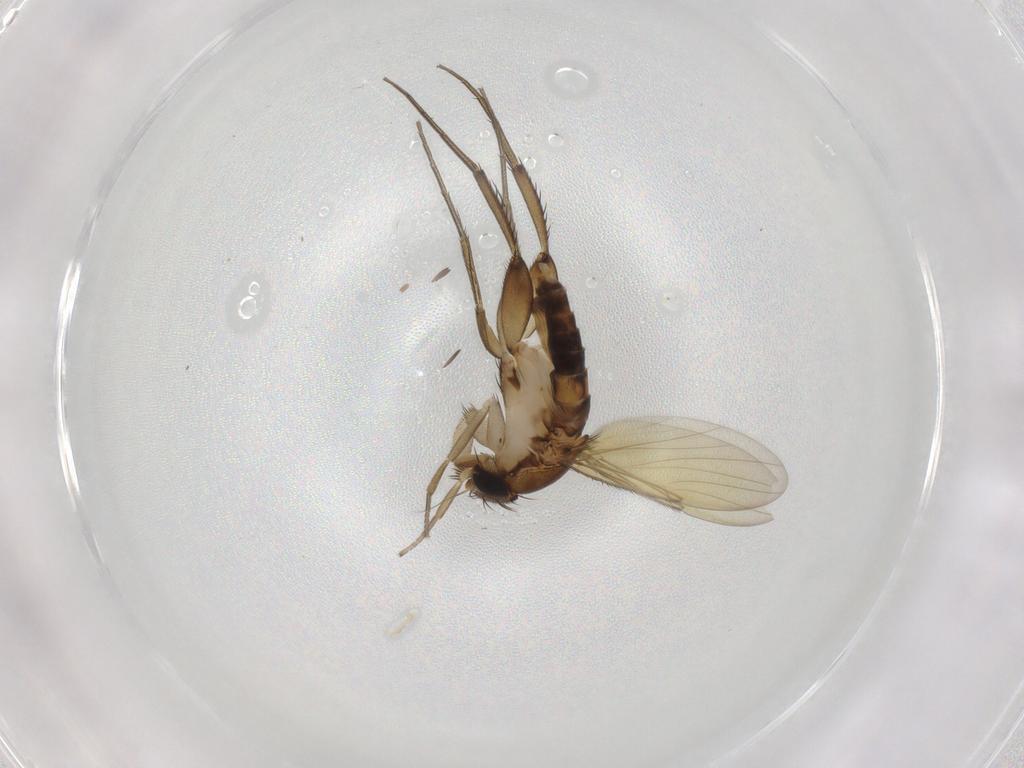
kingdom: Animalia
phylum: Arthropoda
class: Insecta
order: Diptera
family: Phoridae
